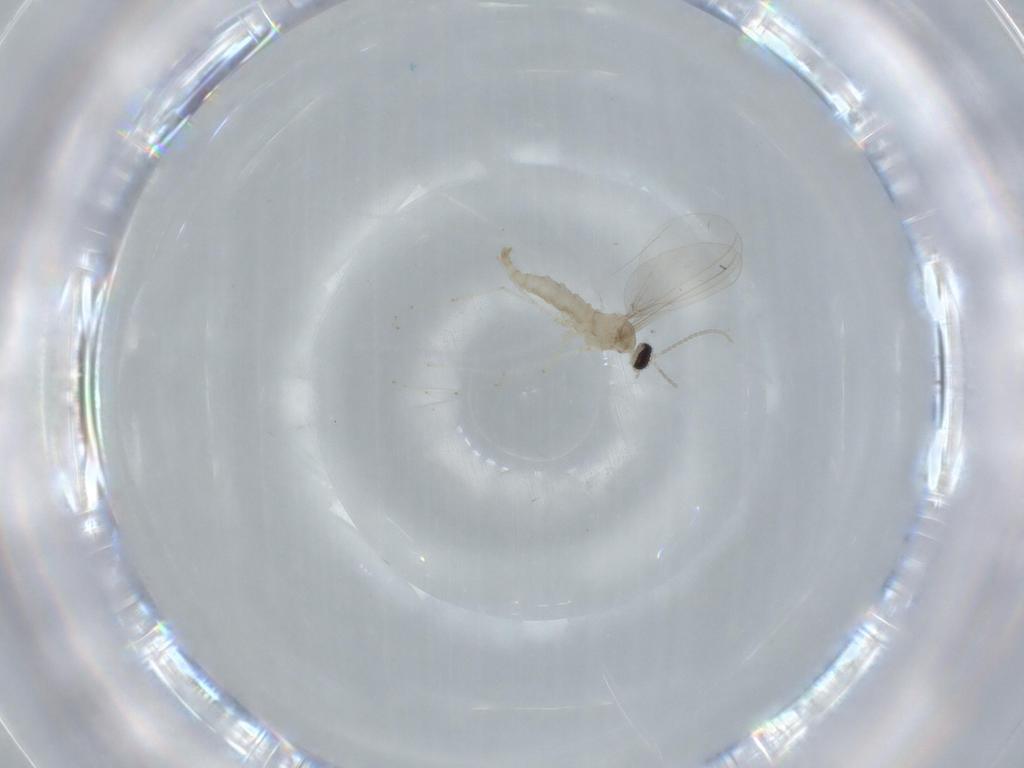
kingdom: Animalia
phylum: Arthropoda
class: Insecta
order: Diptera
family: Cecidomyiidae
